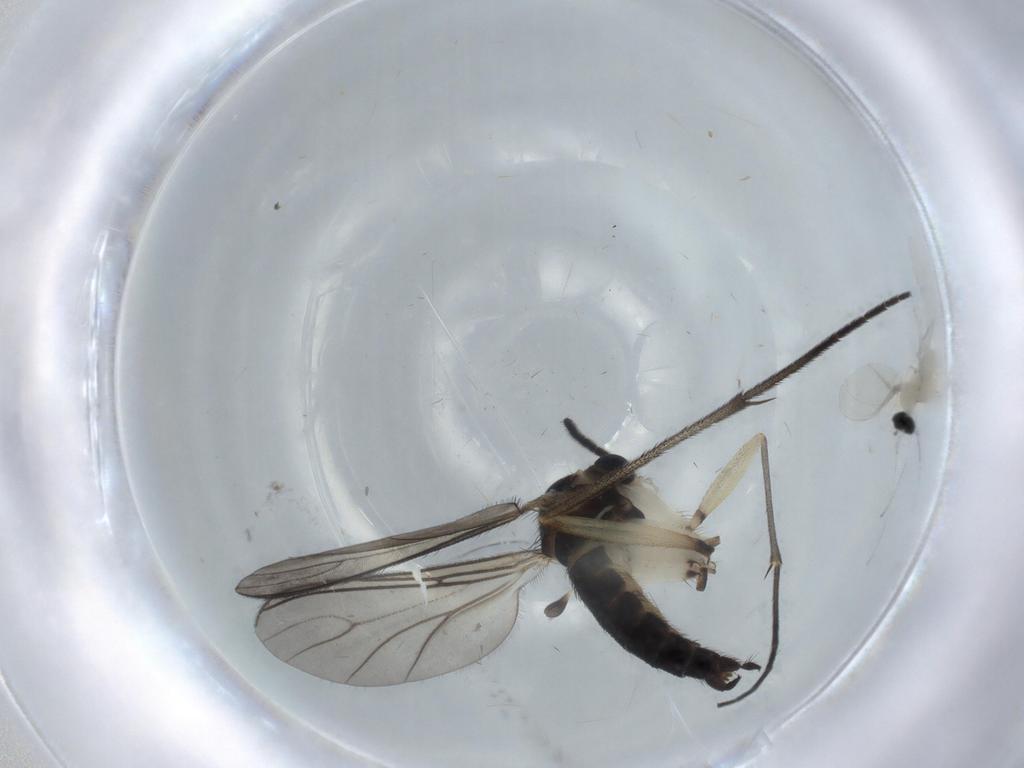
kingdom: Animalia
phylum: Arthropoda
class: Insecta
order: Diptera
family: Sciaridae
